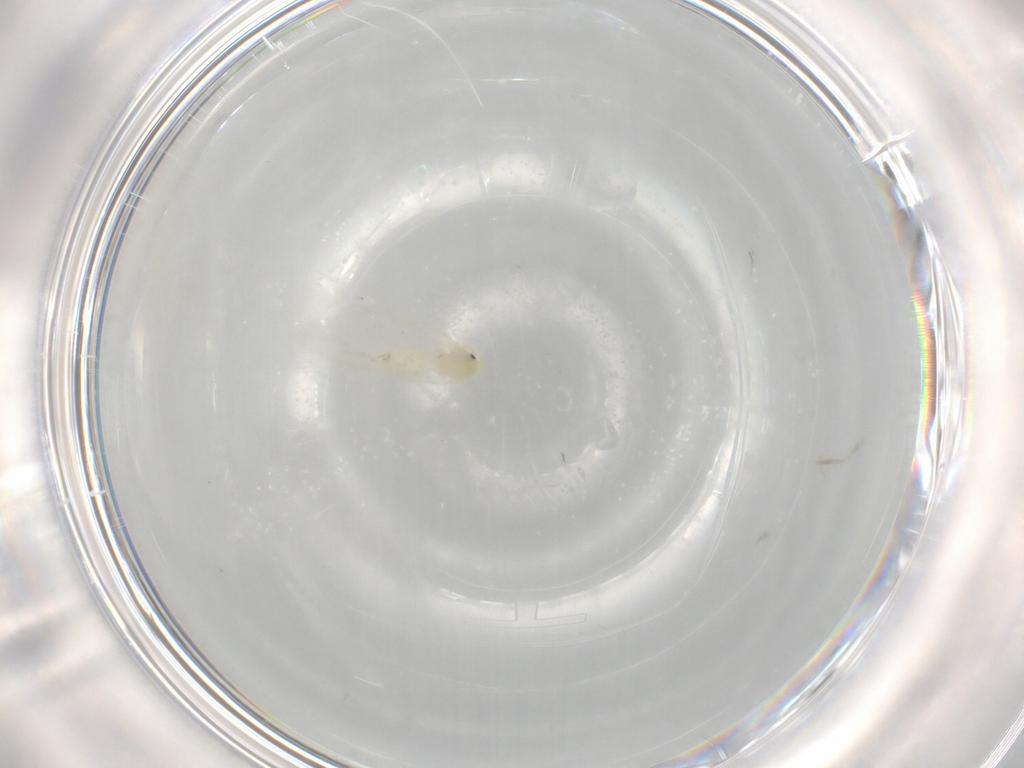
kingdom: Animalia
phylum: Arthropoda
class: Insecta
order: Hemiptera
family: Aleyrodidae
